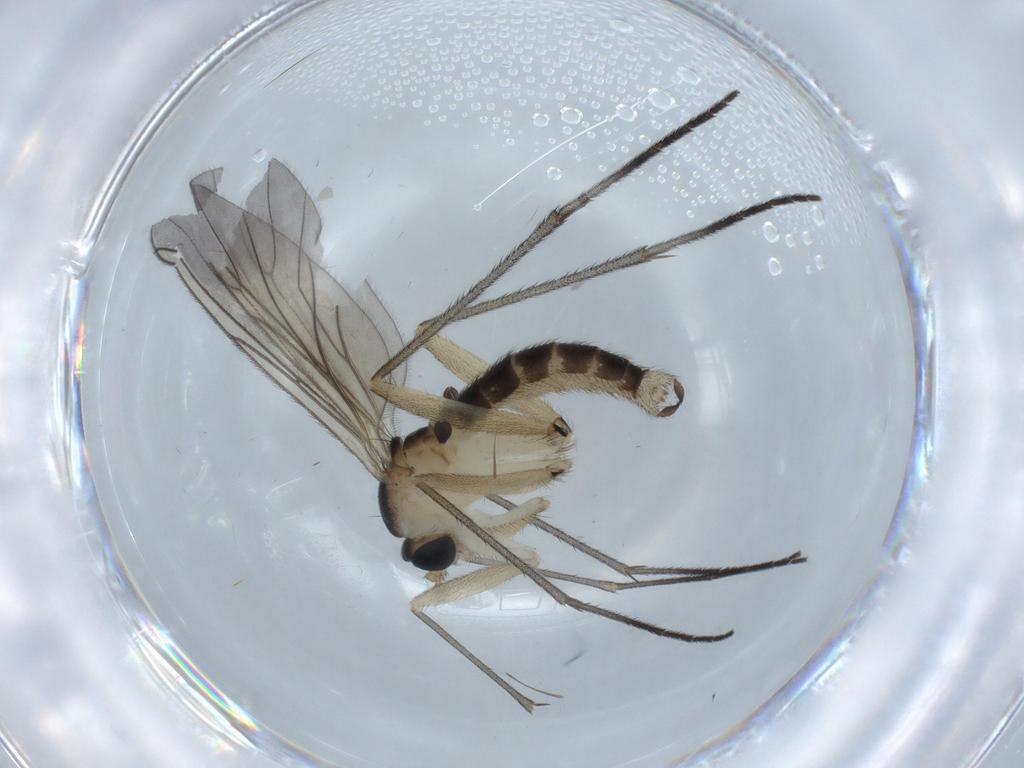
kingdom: Animalia
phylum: Arthropoda
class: Insecta
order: Diptera
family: Sciaridae
